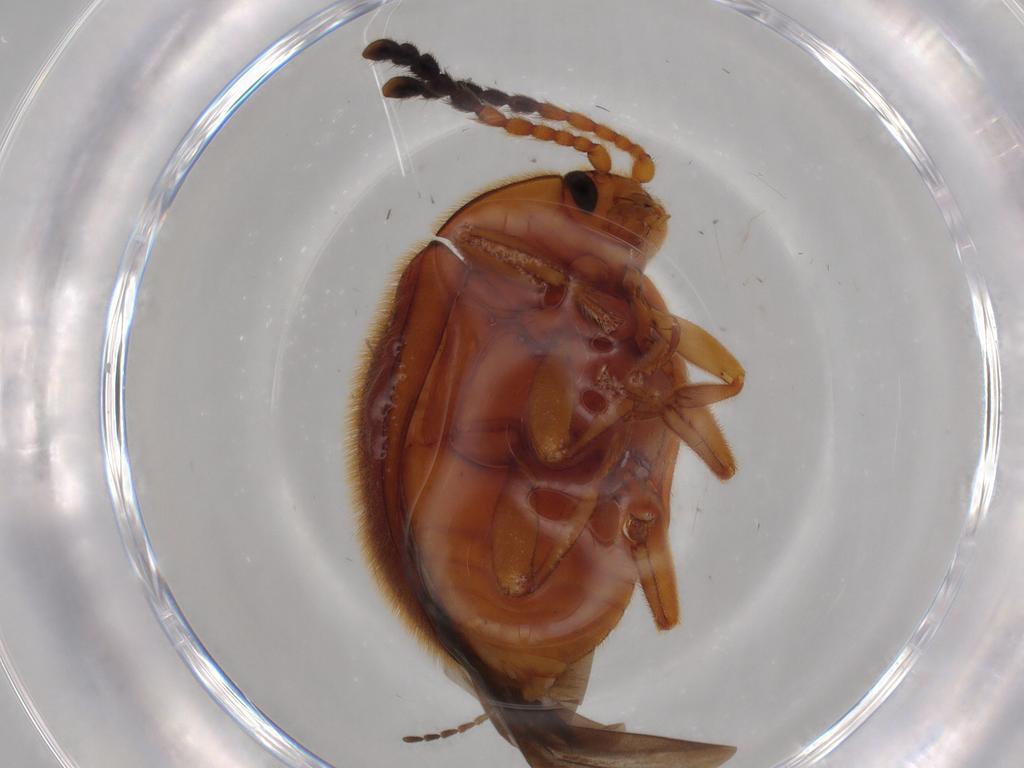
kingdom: Animalia
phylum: Arthropoda
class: Insecta
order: Coleoptera
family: Endomychidae
